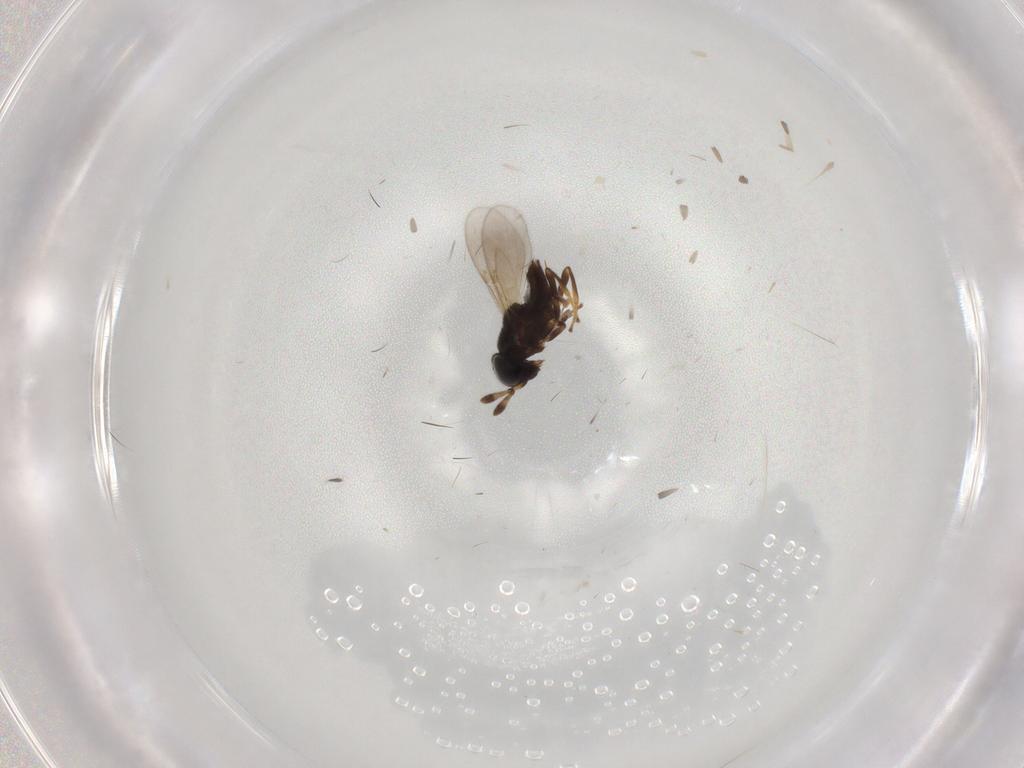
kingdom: Animalia
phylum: Arthropoda
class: Insecta
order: Hymenoptera
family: Encyrtidae
